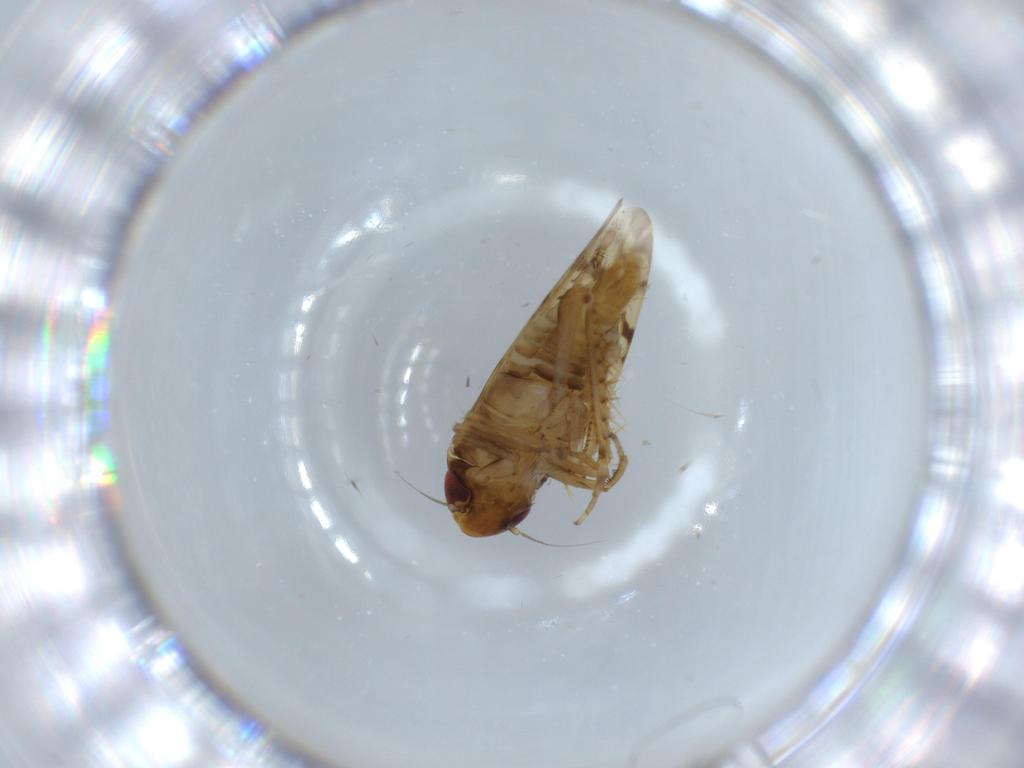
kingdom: Animalia
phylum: Arthropoda
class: Insecta
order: Hemiptera
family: Cicadellidae
